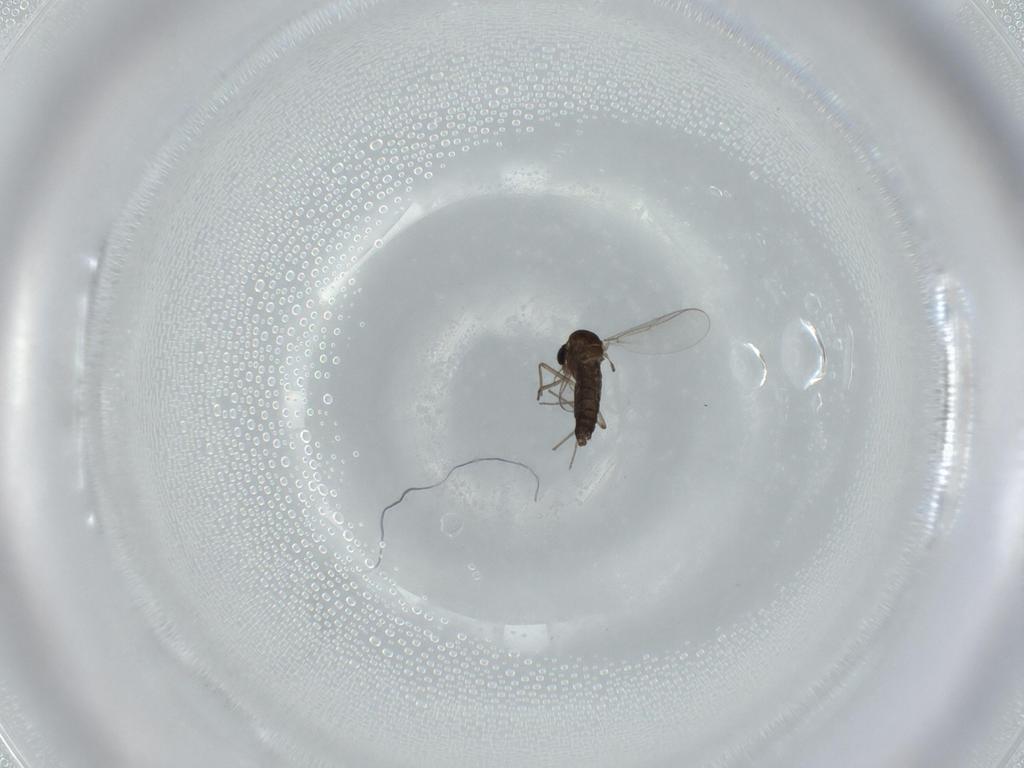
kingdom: Animalia
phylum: Arthropoda
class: Insecta
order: Diptera
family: Chironomidae
